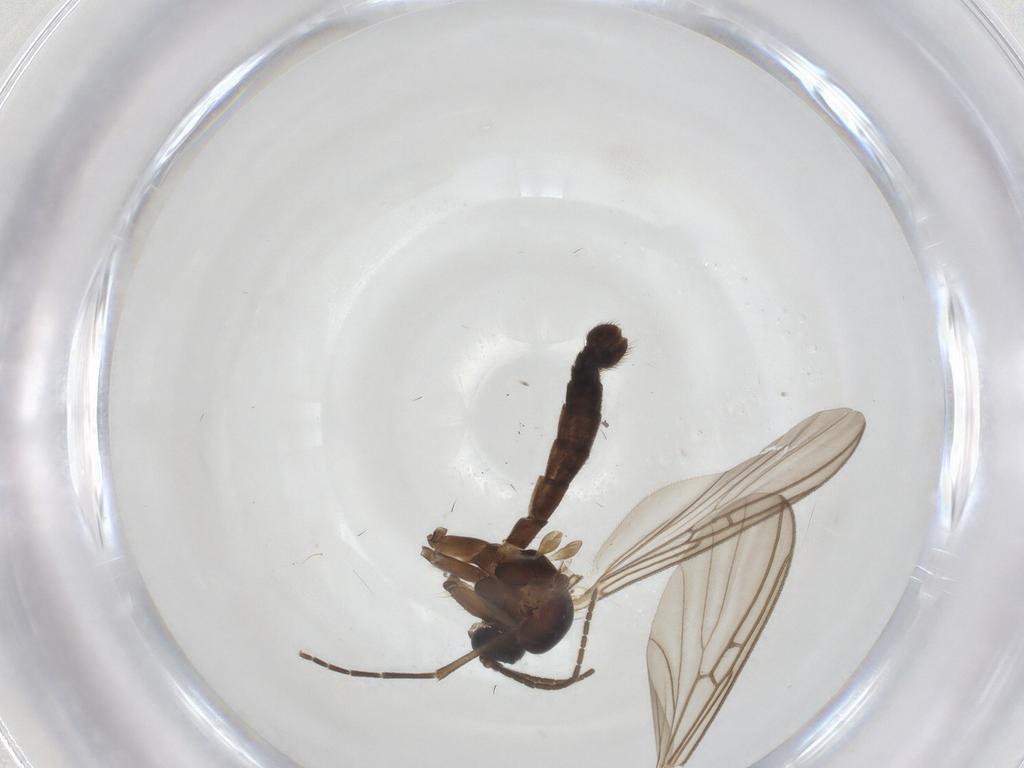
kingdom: Animalia
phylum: Arthropoda
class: Insecta
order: Diptera
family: Mycetophilidae
